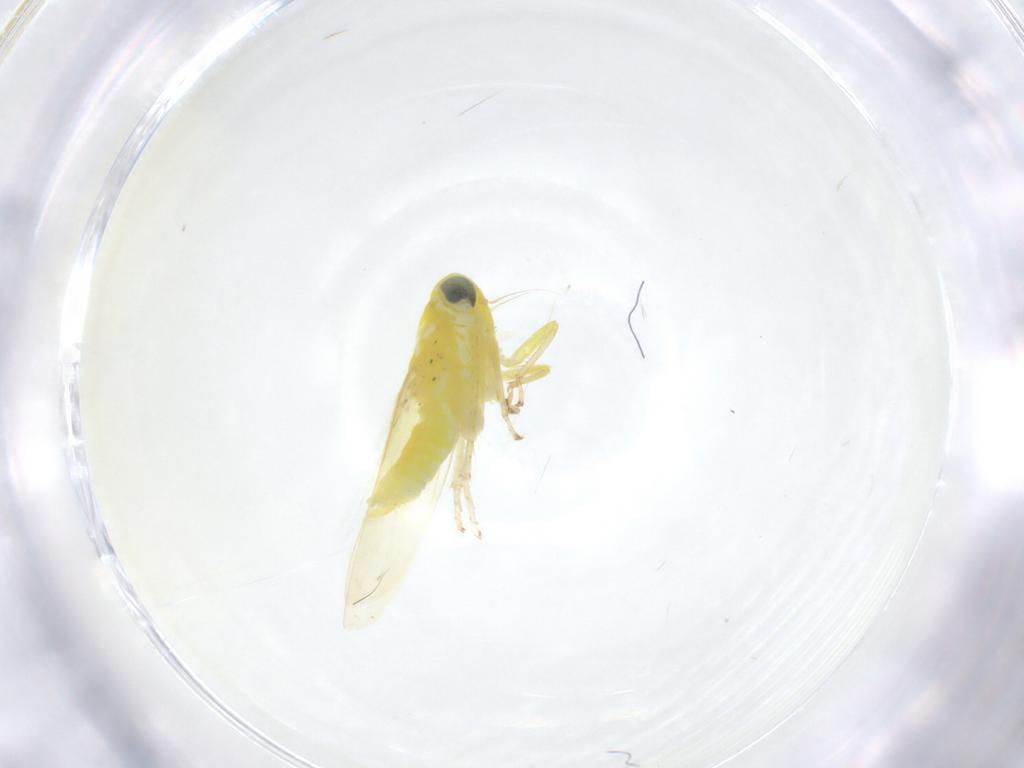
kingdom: Animalia
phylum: Arthropoda
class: Insecta
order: Hemiptera
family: Cicadellidae
